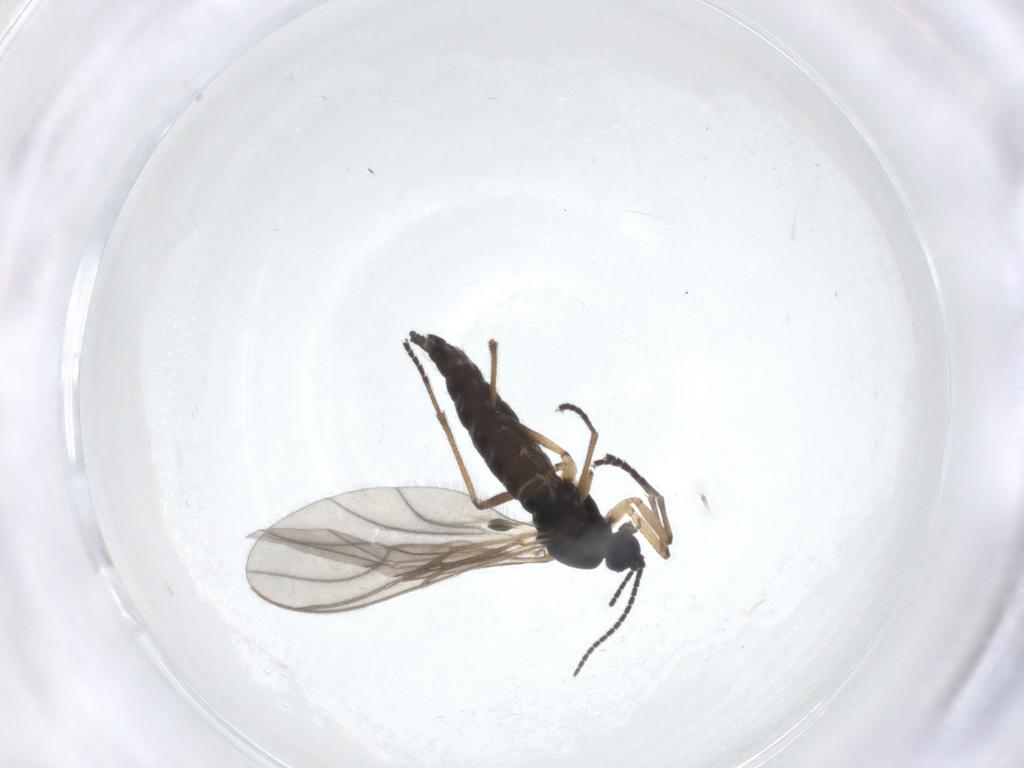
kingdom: Animalia
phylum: Arthropoda
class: Insecta
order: Diptera
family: Sciaridae
